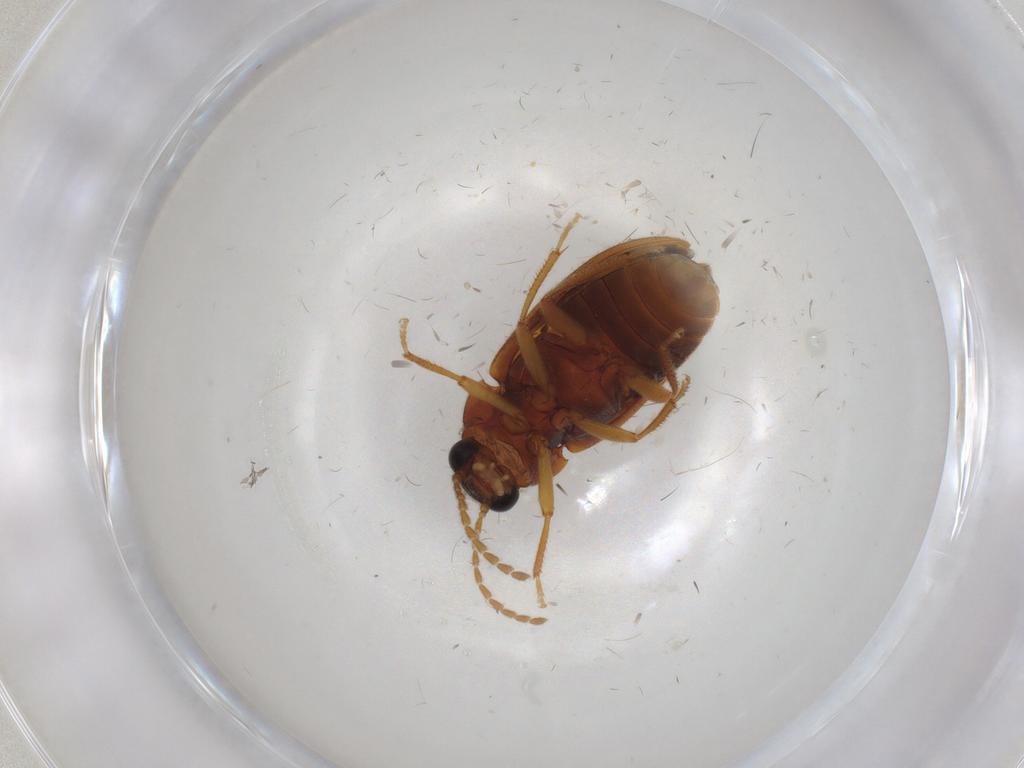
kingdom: Animalia
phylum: Arthropoda
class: Insecta
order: Coleoptera
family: Ptilodactylidae
